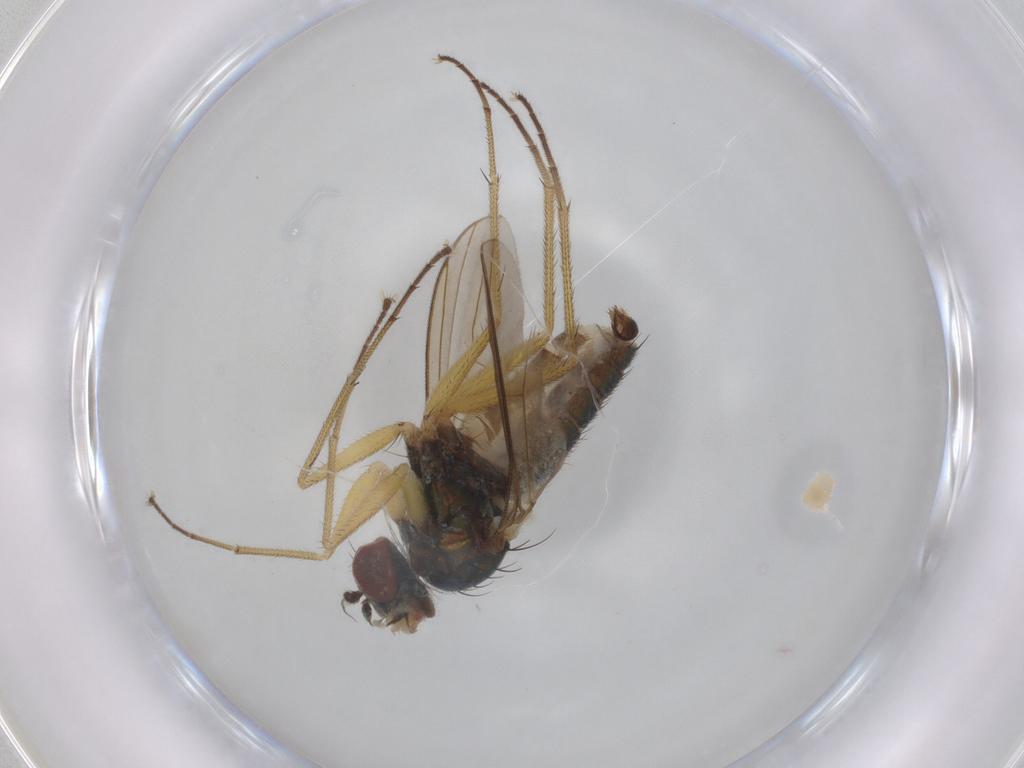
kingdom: Animalia
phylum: Arthropoda
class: Insecta
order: Diptera
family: Dolichopodidae
